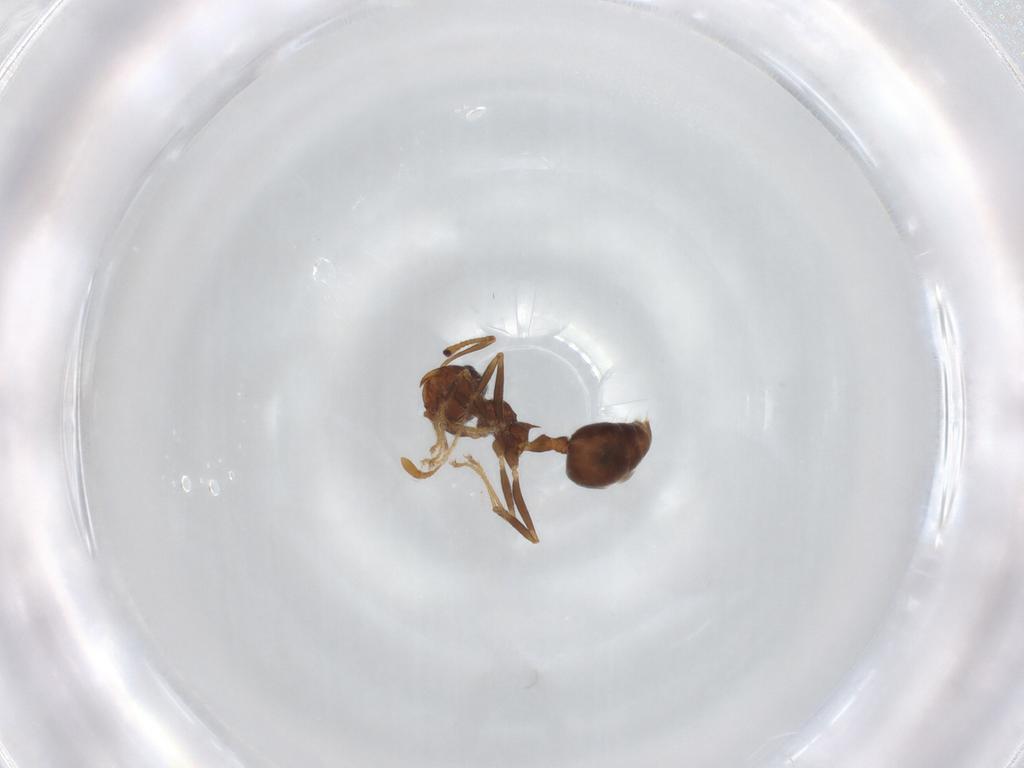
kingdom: Animalia
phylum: Arthropoda
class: Insecta
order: Hymenoptera
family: Formicidae
